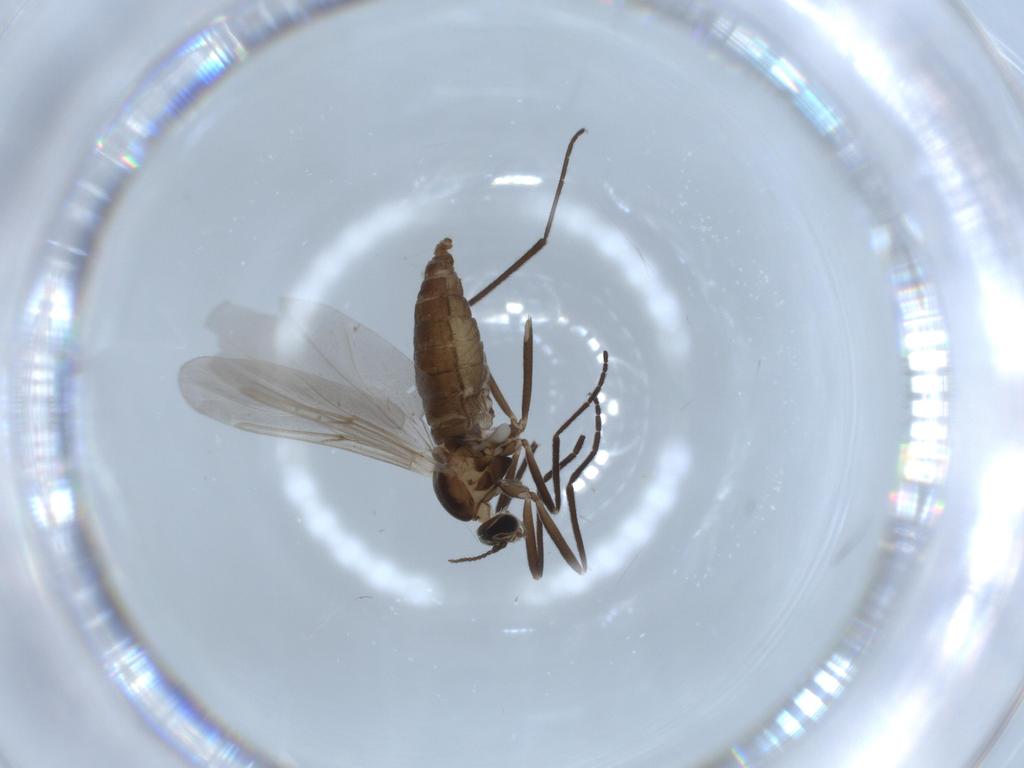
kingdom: Animalia
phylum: Arthropoda
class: Insecta
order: Diptera
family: Cecidomyiidae
